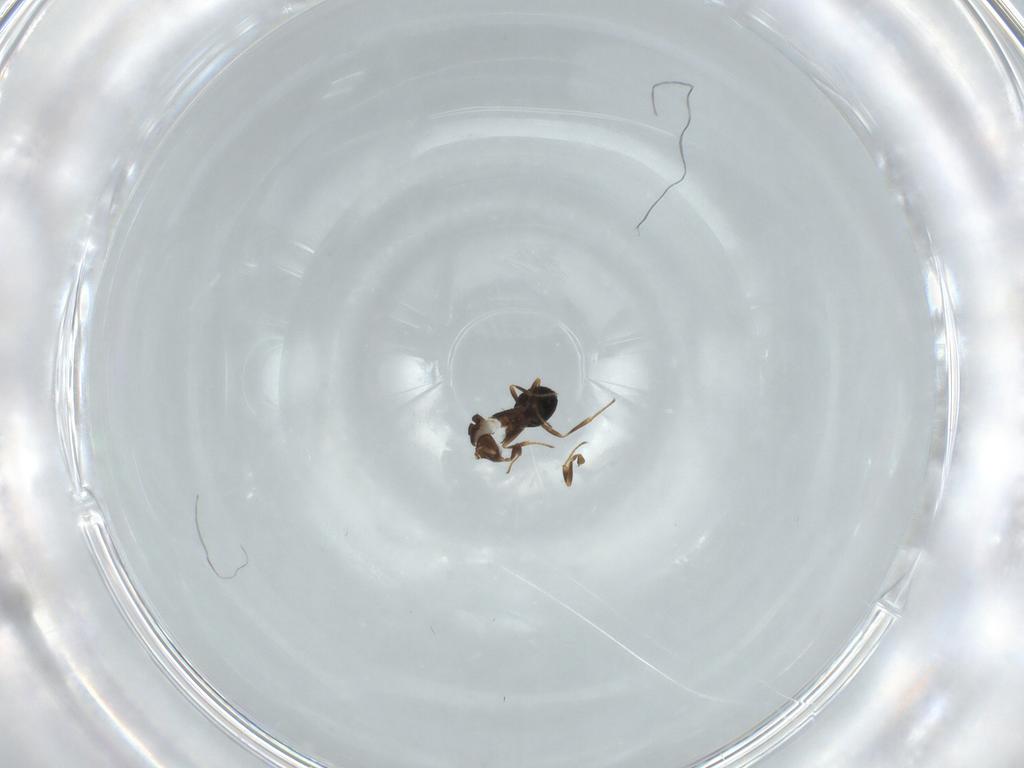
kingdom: Animalia
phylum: Arthropoda
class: Insecta
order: Hymenoptera
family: Scelionidae
